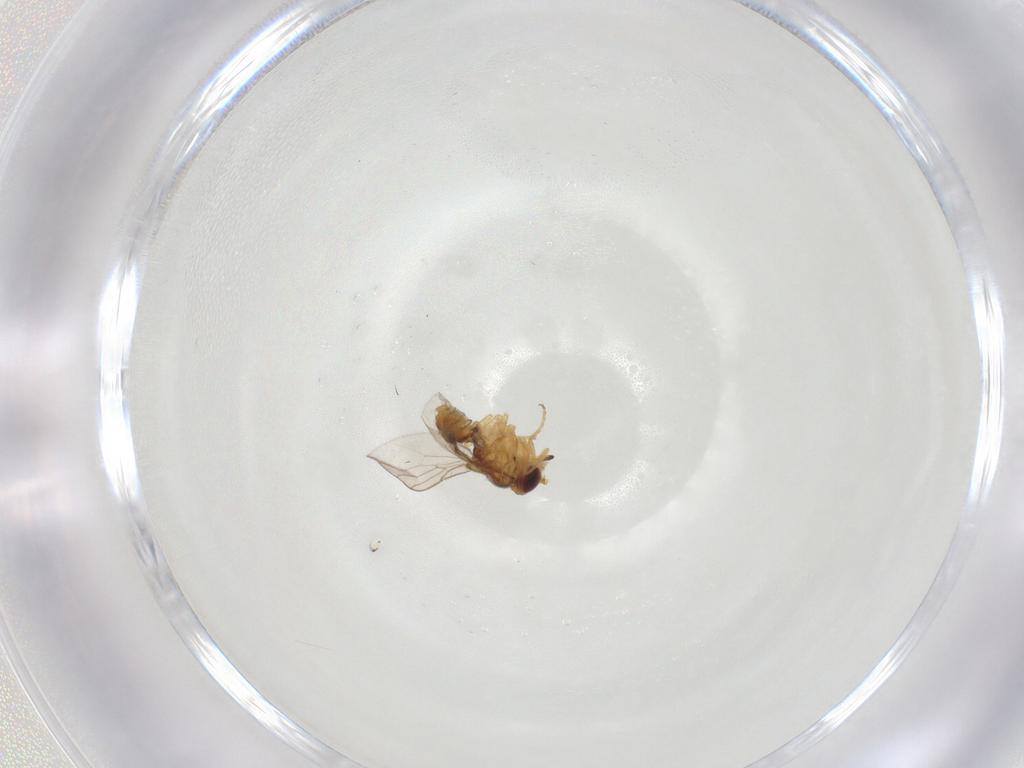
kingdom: Animalia
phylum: Arthropoda
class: Insecta
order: Diptera
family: Chloropidae
